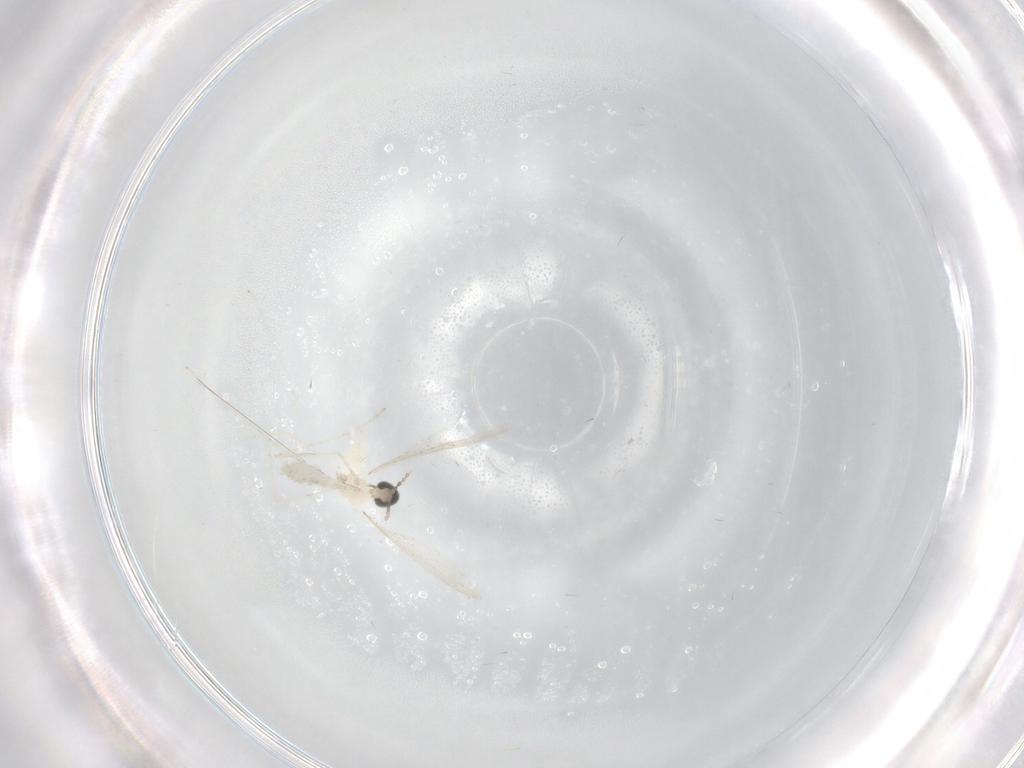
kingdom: Animalia
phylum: Arthropoda
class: Insecta
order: Diptera
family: Cecidomyiidae
